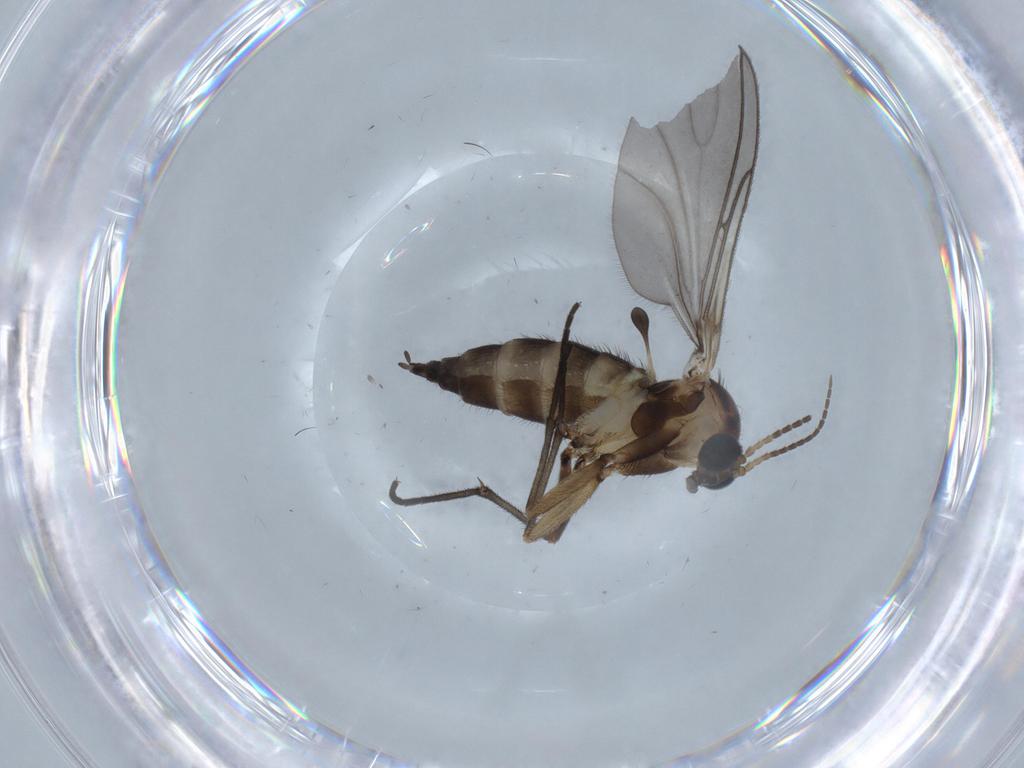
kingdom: Animalia
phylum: Arthropoda
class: Insecta
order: Diptera
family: Sciaridae
